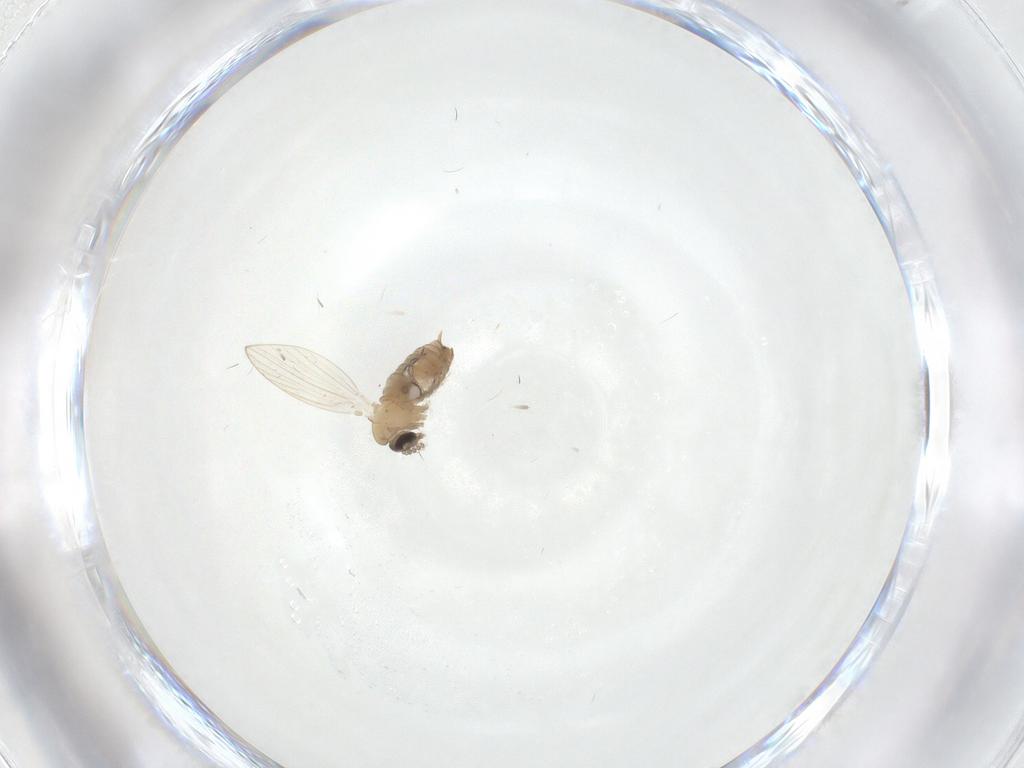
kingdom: Animalia
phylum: Arthropoda
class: Insecta
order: Diptera
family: Psychodidae
